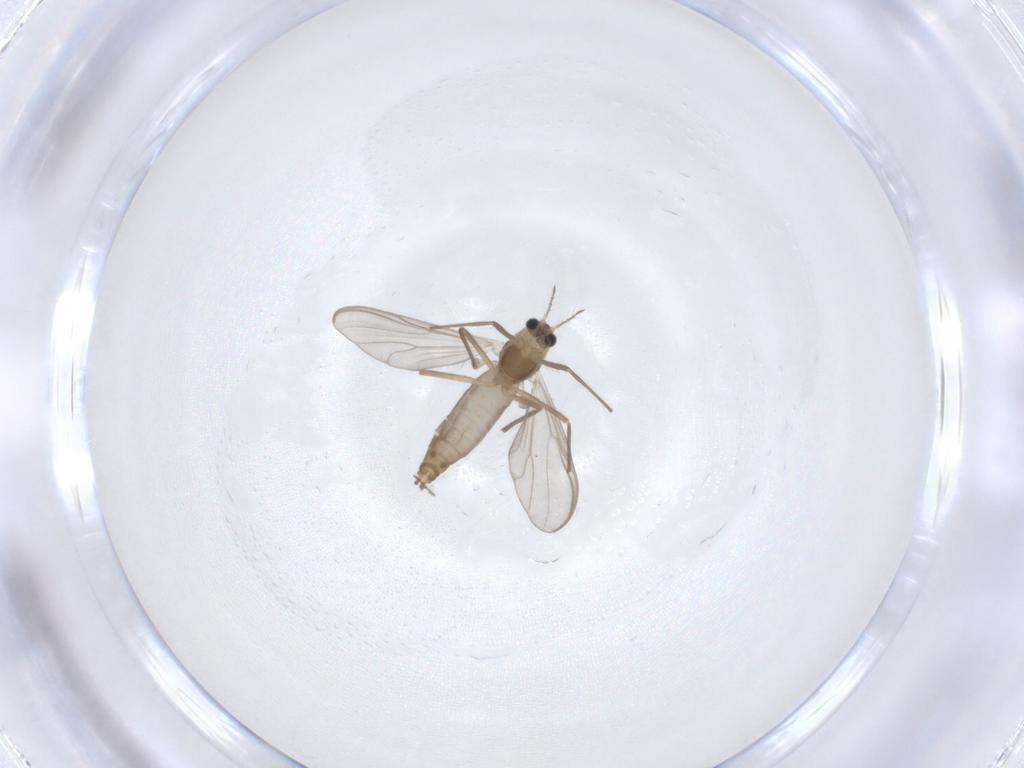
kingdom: Animalia
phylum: Arthropoda
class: Insecta
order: Diptera
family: Chironomidae
